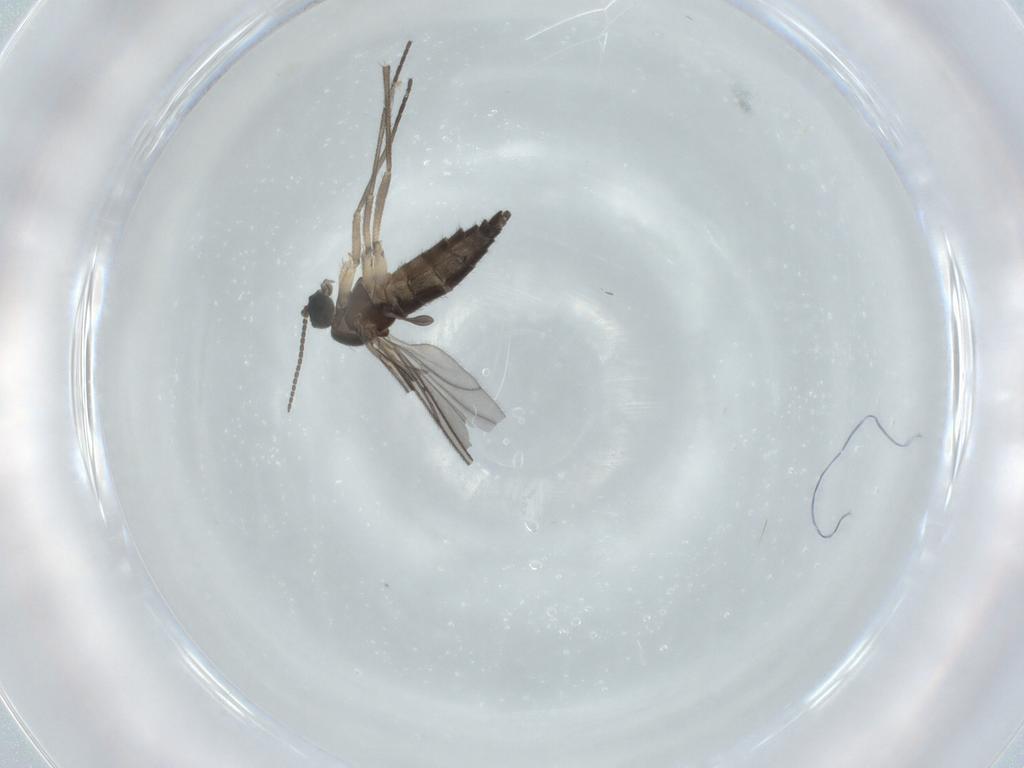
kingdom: Animalia
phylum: Arthropoda
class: Insecta
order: Diptera
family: Sciaridae
